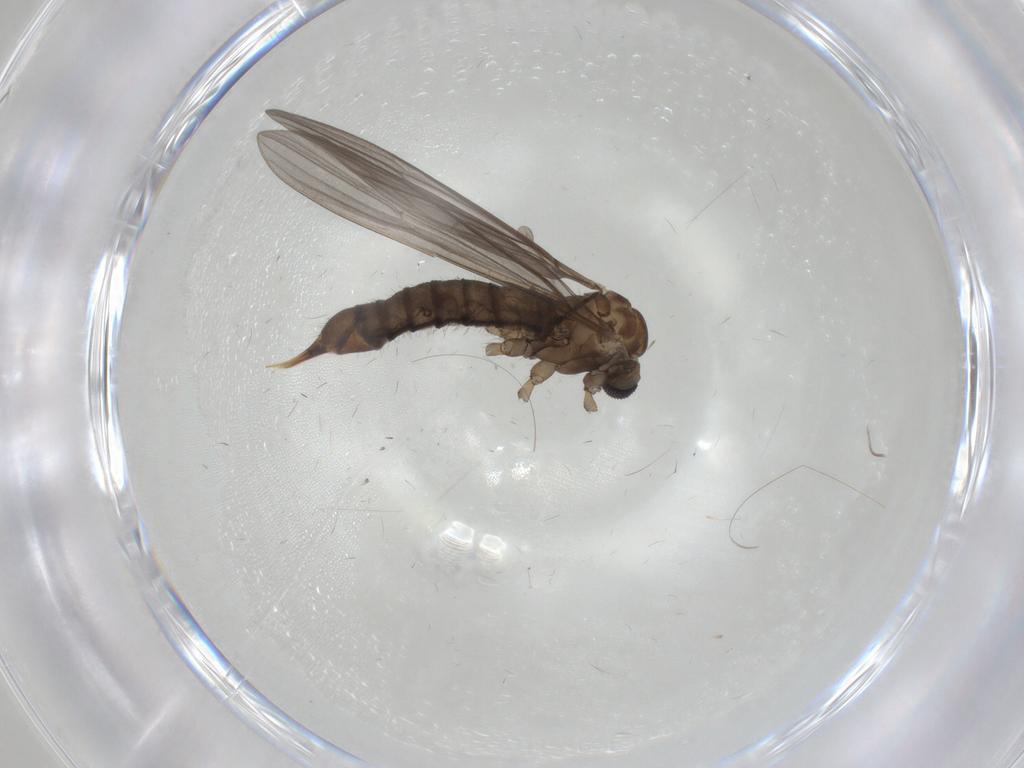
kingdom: Animalia
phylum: Arthropoda
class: Insecta
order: Diptera
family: Limoniidae
